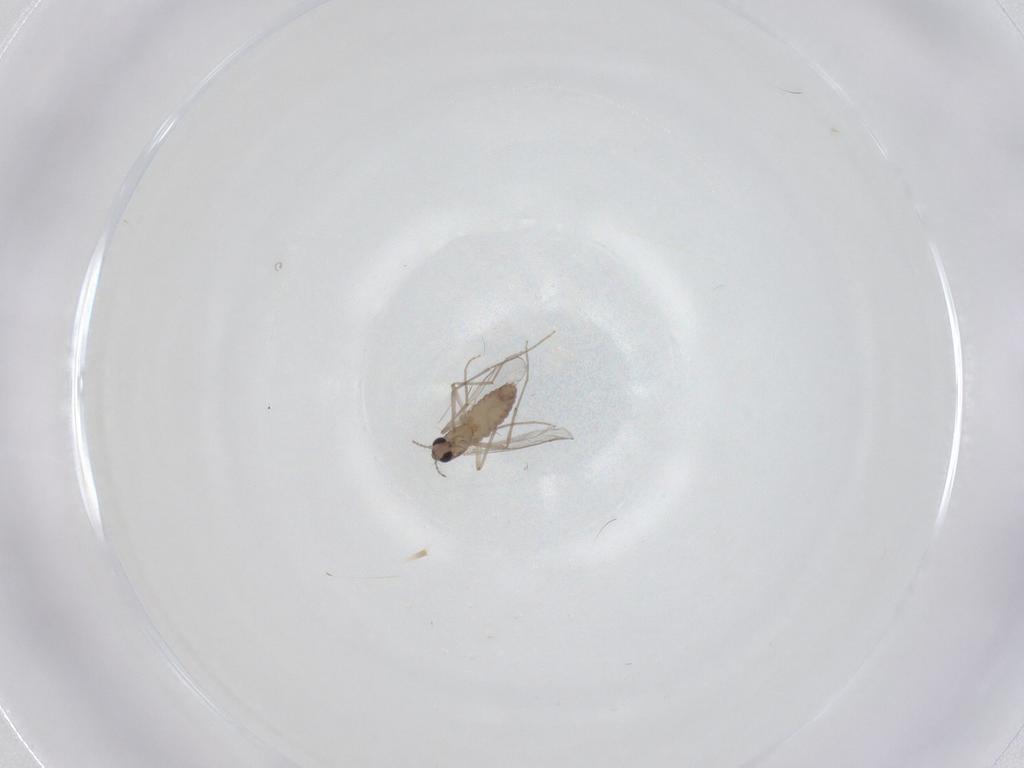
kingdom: Animalia
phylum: Arthropoda
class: Insecta
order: Diptera
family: Chironomidae
